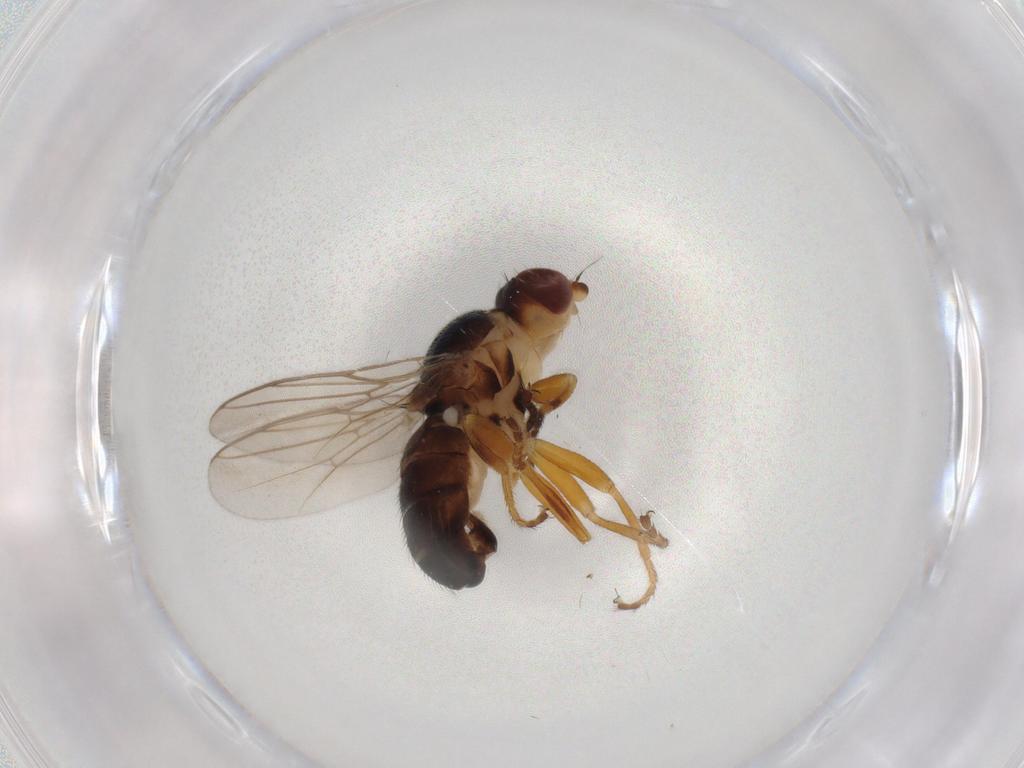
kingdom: Animalia
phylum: Arthropoda
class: Insecta
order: Diptera
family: Chloropidae
